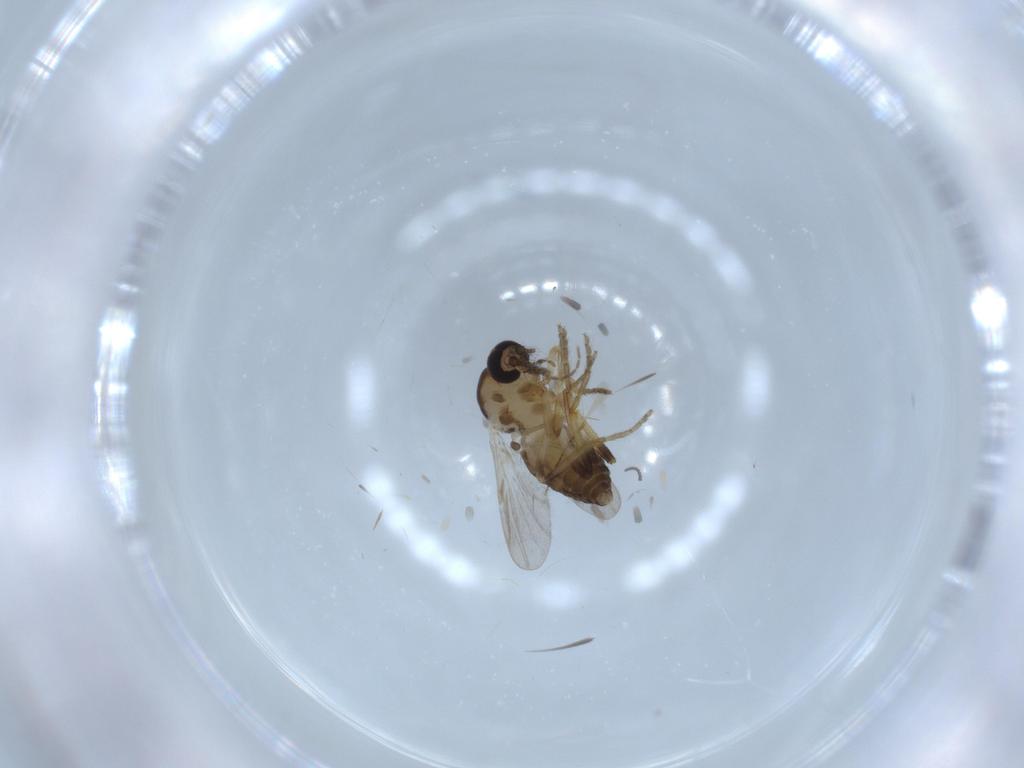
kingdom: Animalia
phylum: Arthropoda
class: Insecta
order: Diptera
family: Ceratopogonidae
